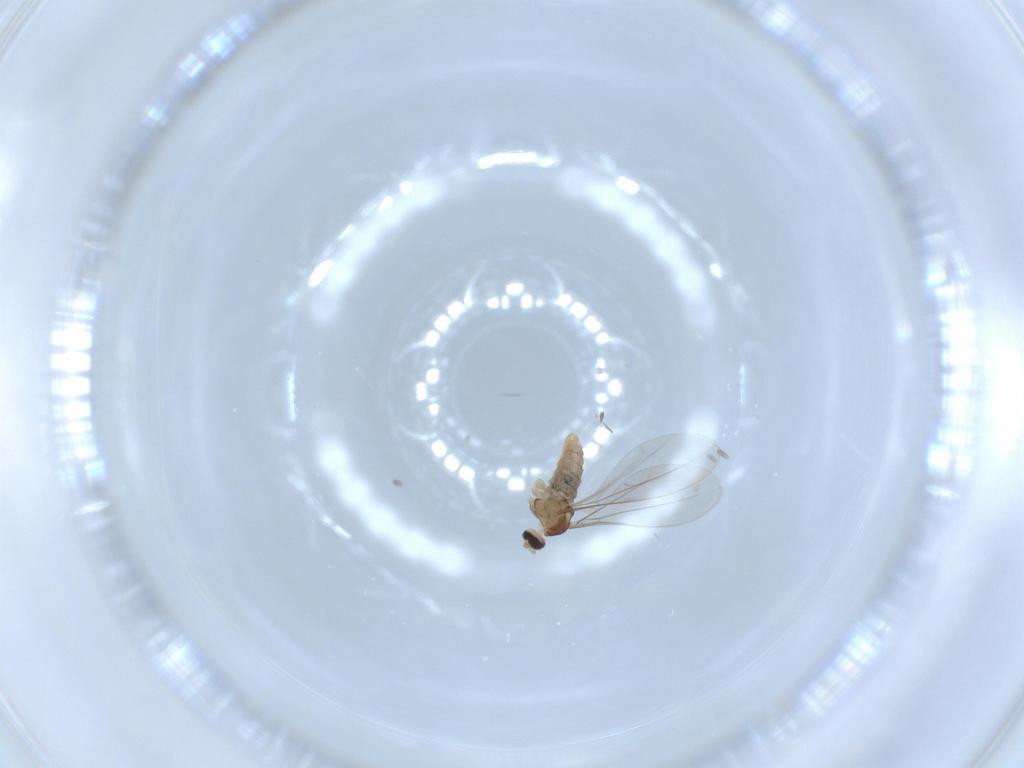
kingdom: Animalia
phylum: Arthropoda
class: Insecta
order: Diptera
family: Cecidomyiidae
